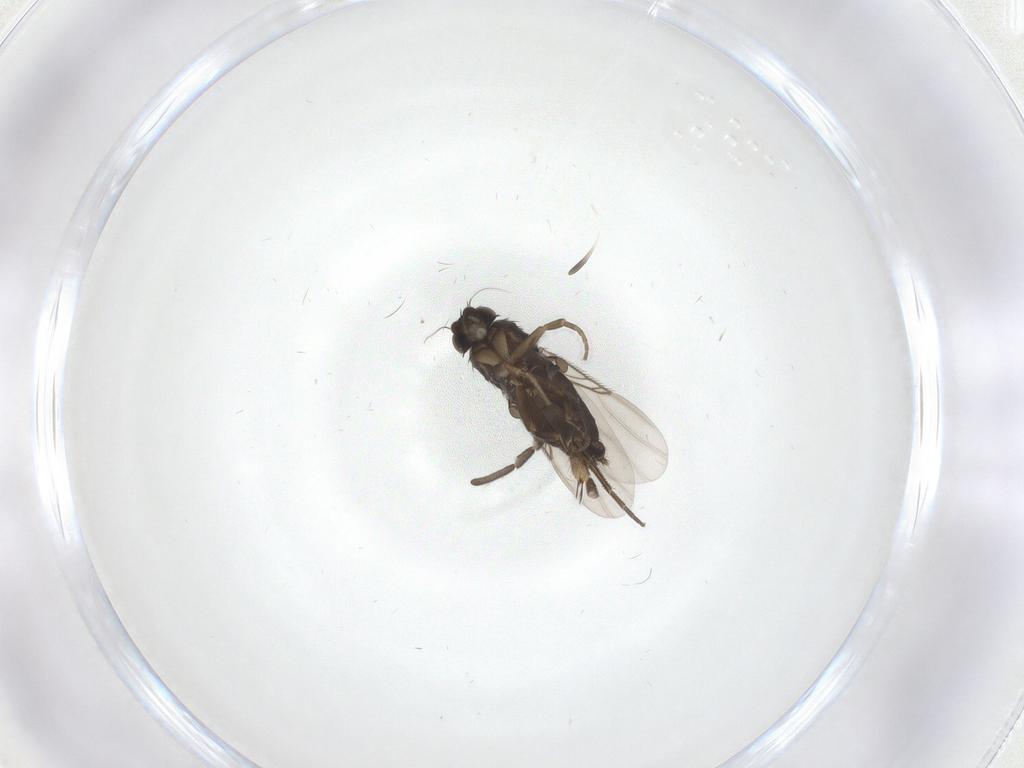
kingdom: Animalia
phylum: Arthropoda
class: Insecta
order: Diptera
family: Phoridae
